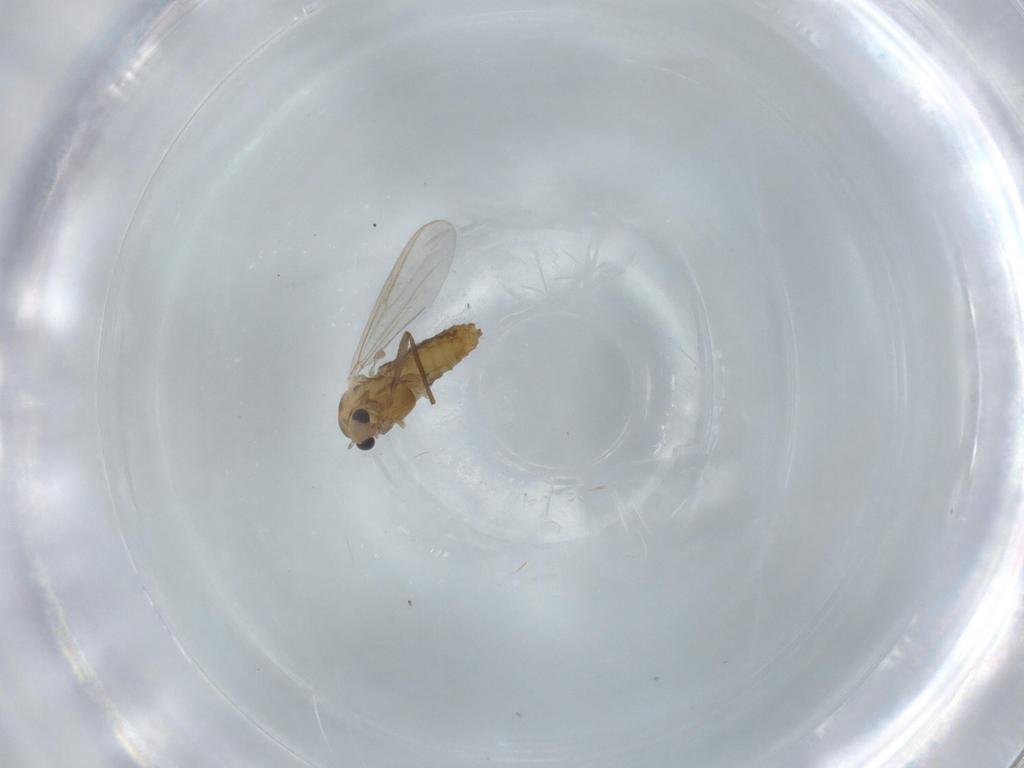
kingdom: Animalia
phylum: Arthropoda
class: Insecta
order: Diptera
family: Chironomidae
